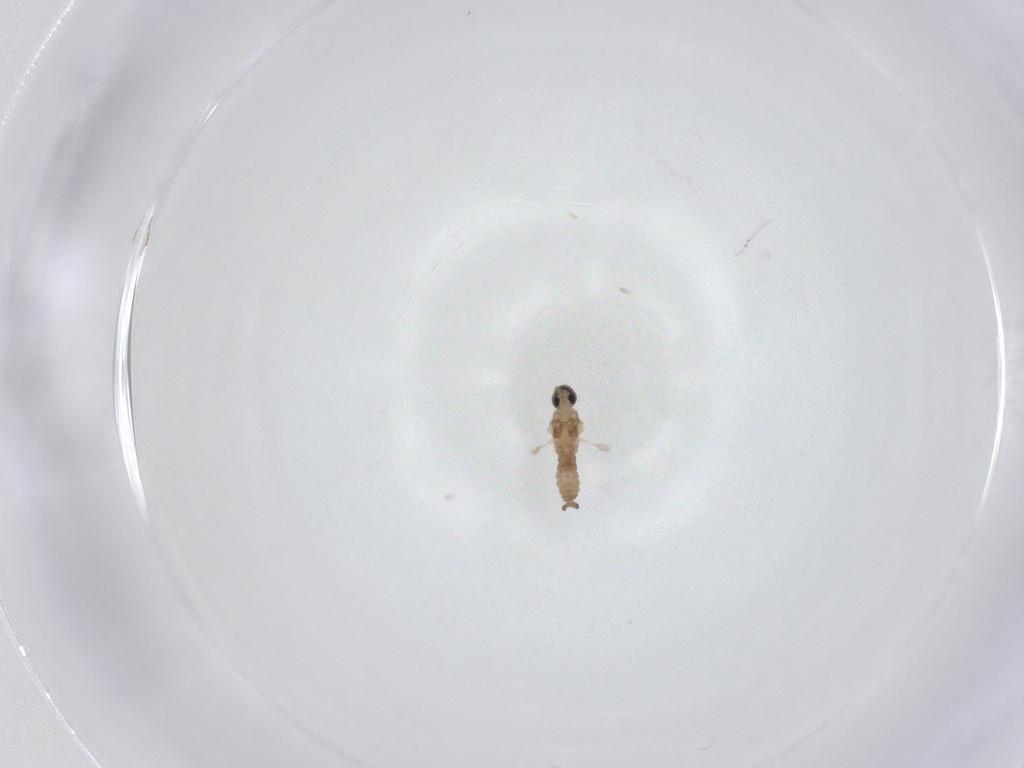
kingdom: Animalia
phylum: Arthropoda
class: Insecta
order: Diptera
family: Cecidomyiidae
